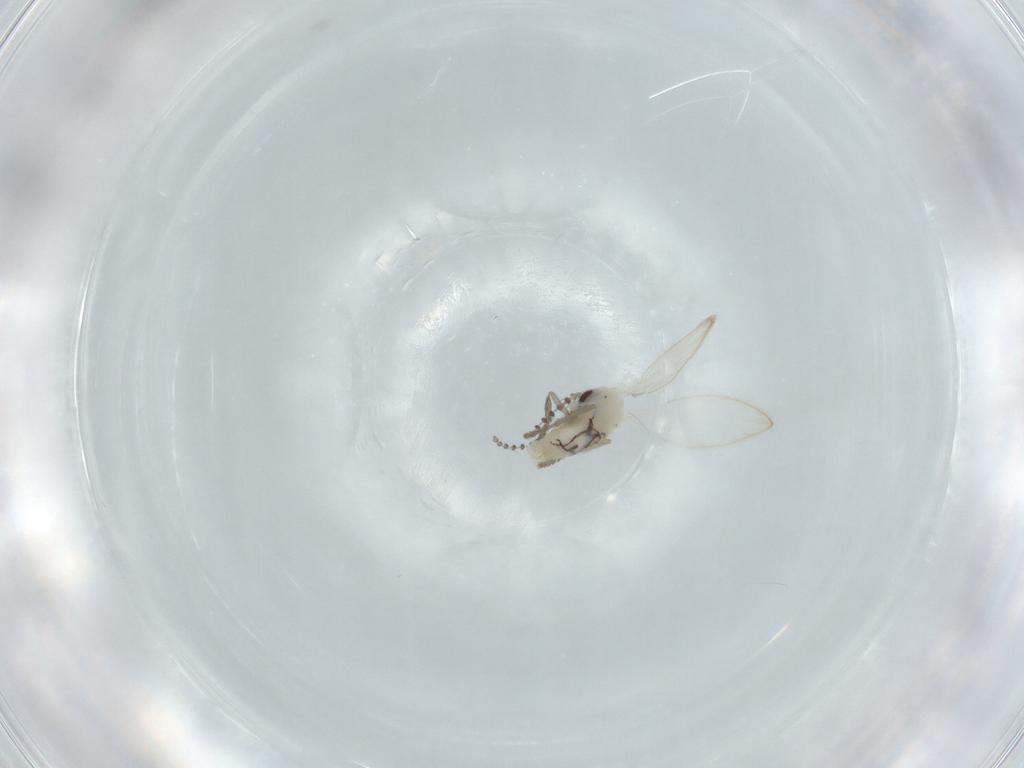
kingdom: Animalia
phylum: Arthropoda
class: Insecta
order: Diptera
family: Psychodidae
